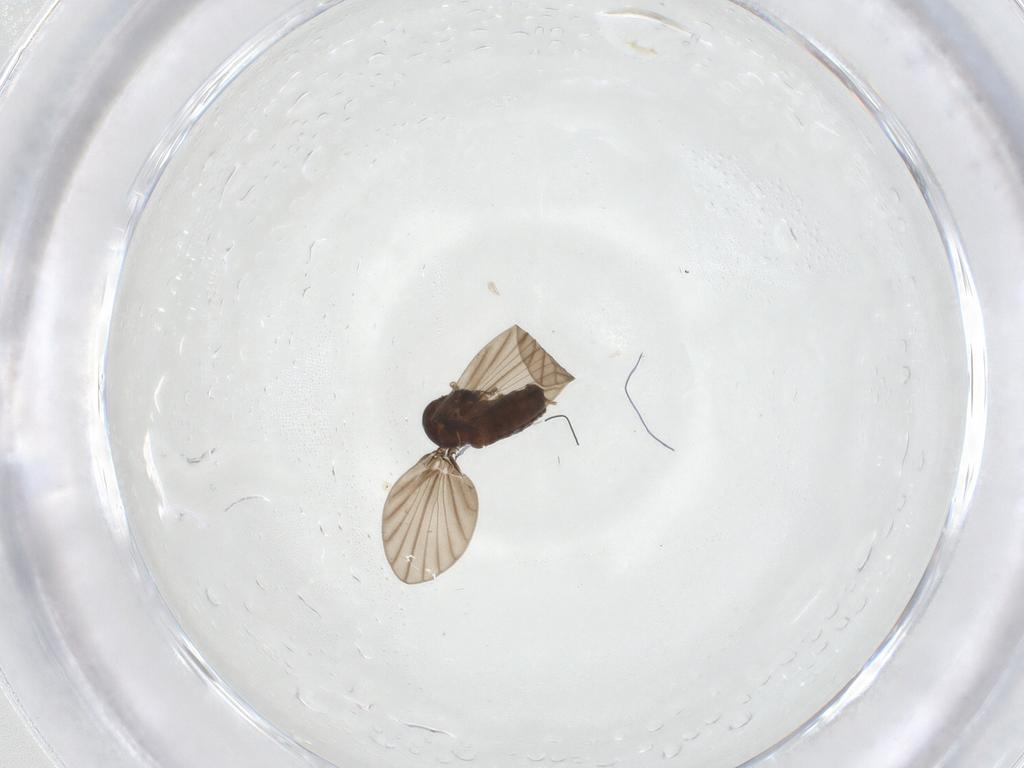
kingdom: Animalia
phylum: Arthropoda
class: Insecta
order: Diptera
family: Psychodidae
